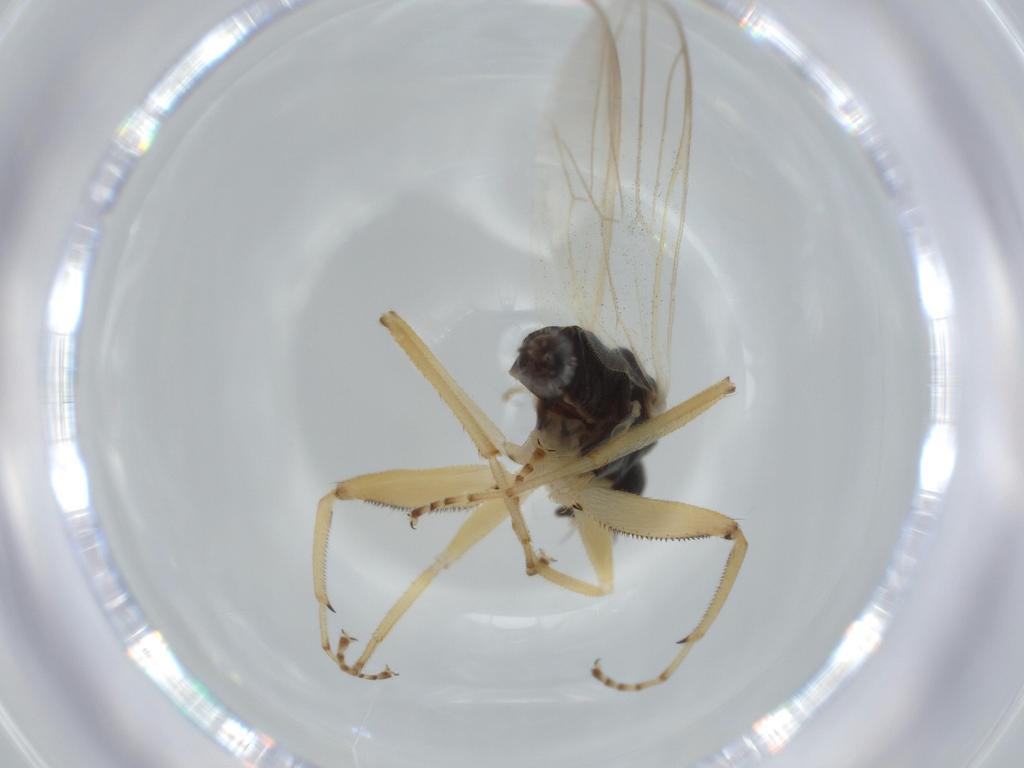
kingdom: Animalia
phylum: Arthropoda
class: Insecta
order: Diptera
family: Hybotidae
